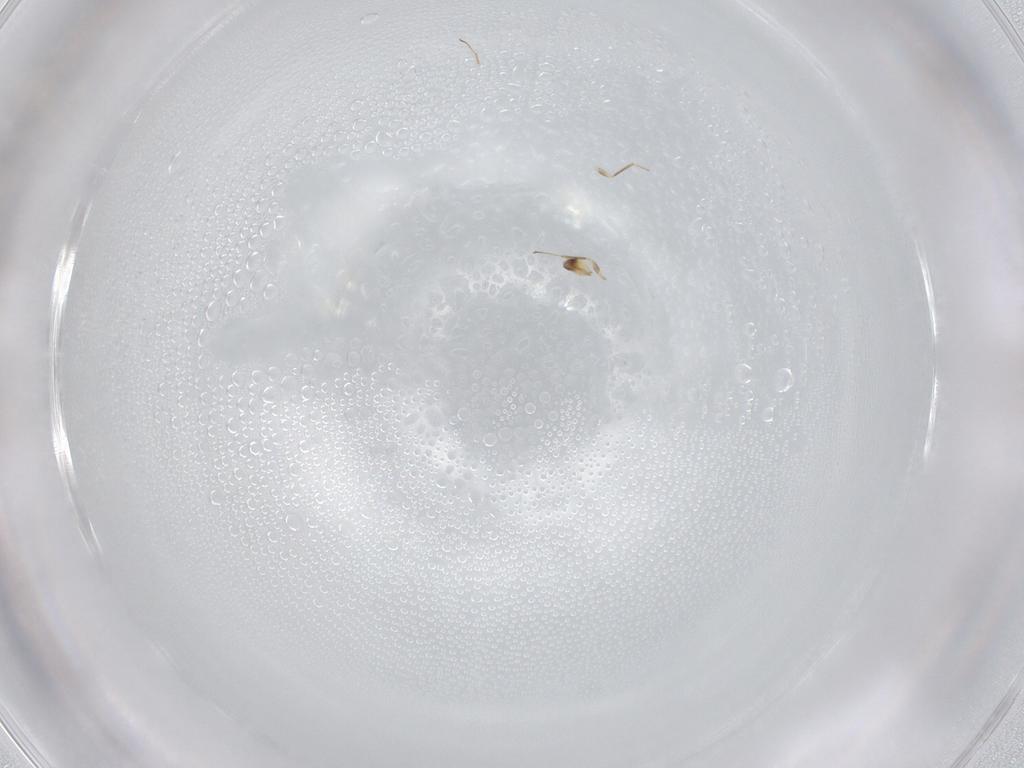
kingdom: Animalia
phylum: Arthropoda
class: Insecta
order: Hymenoptera
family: Mymaridae
